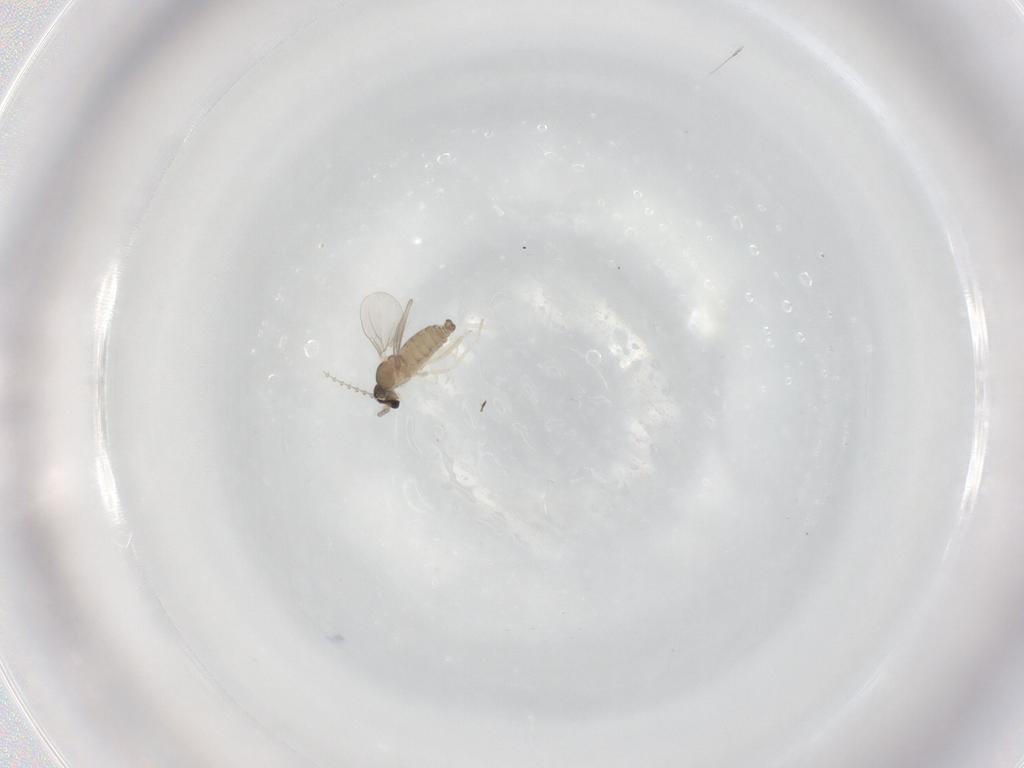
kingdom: Animalia
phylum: Arthropoda
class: Insecta
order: Diptera
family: Cecidomyiidae
